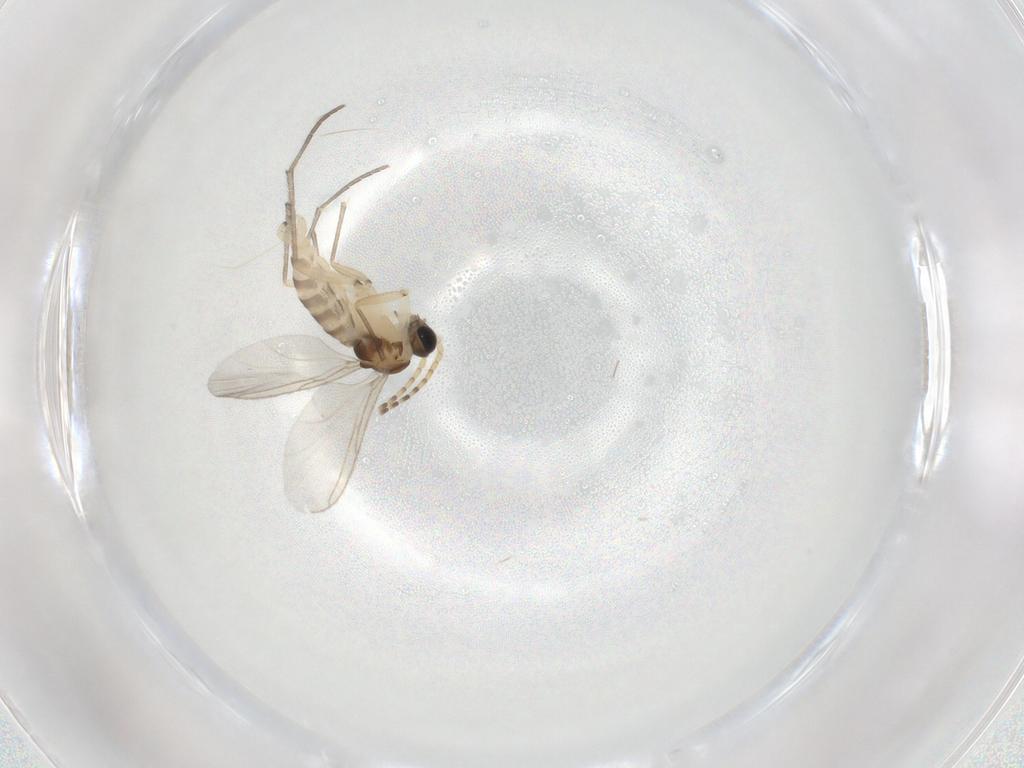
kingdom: Animalia
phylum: Arthropoda
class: Insecta
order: Diptera
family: Sciaridae
